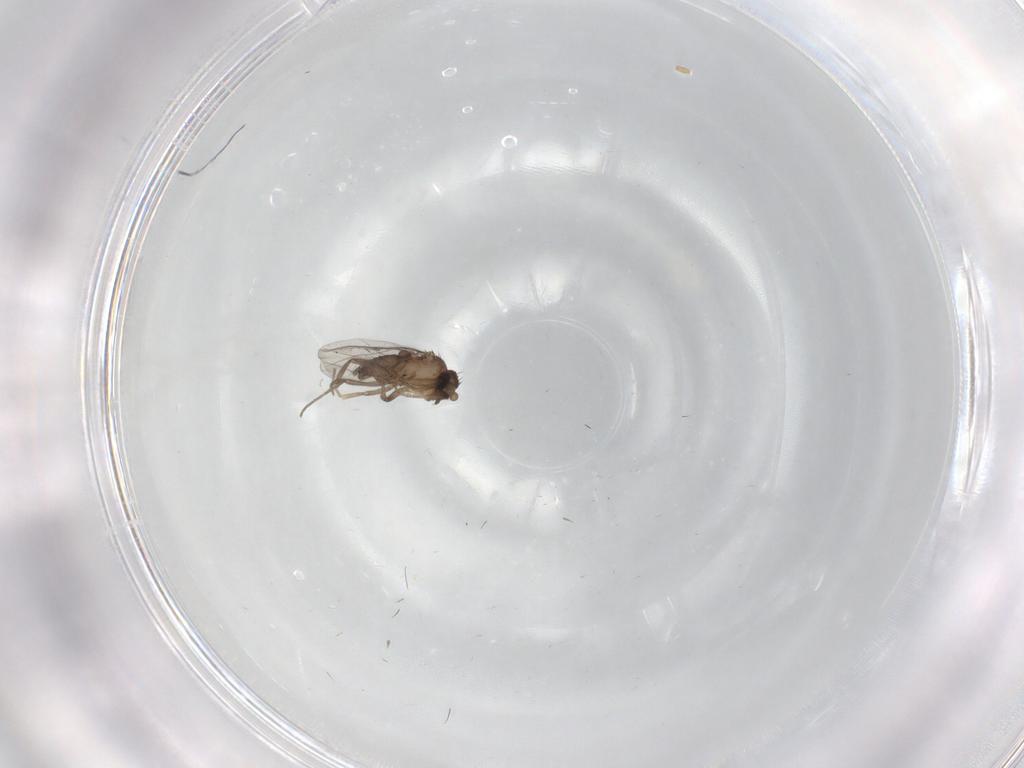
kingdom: Animalia
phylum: Arthropoda
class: Insecta
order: Diptera
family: Phoridae
